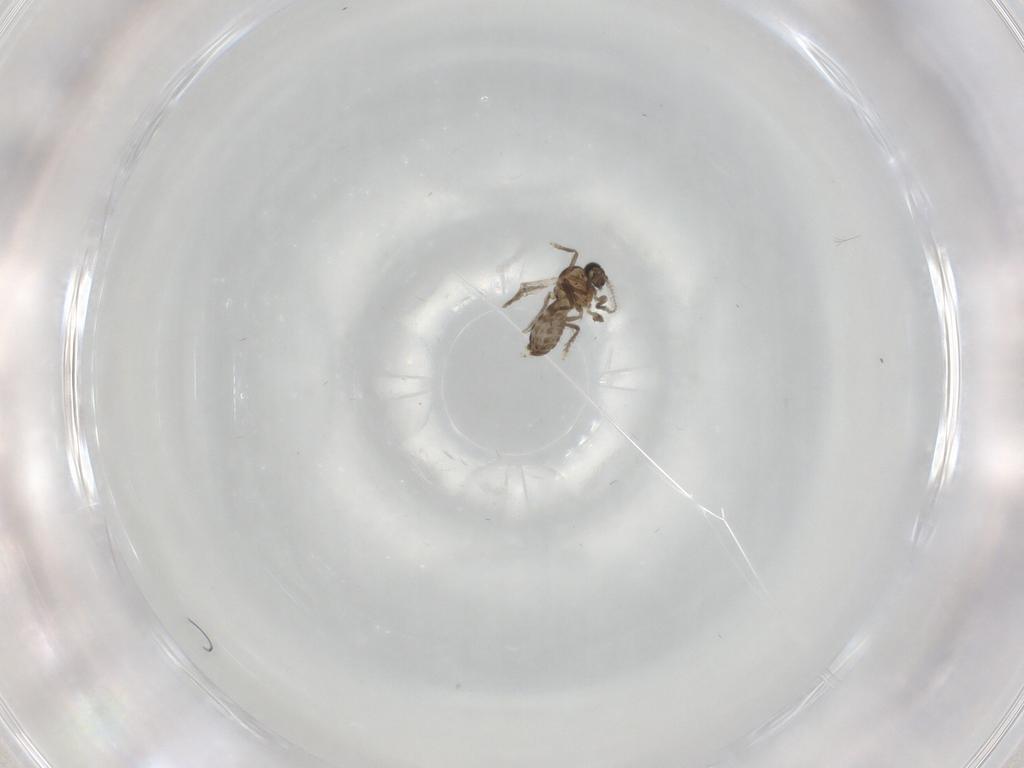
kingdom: Animalia
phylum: Arthropoda
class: Insecta
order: Diptera
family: Ceratopogonidae
